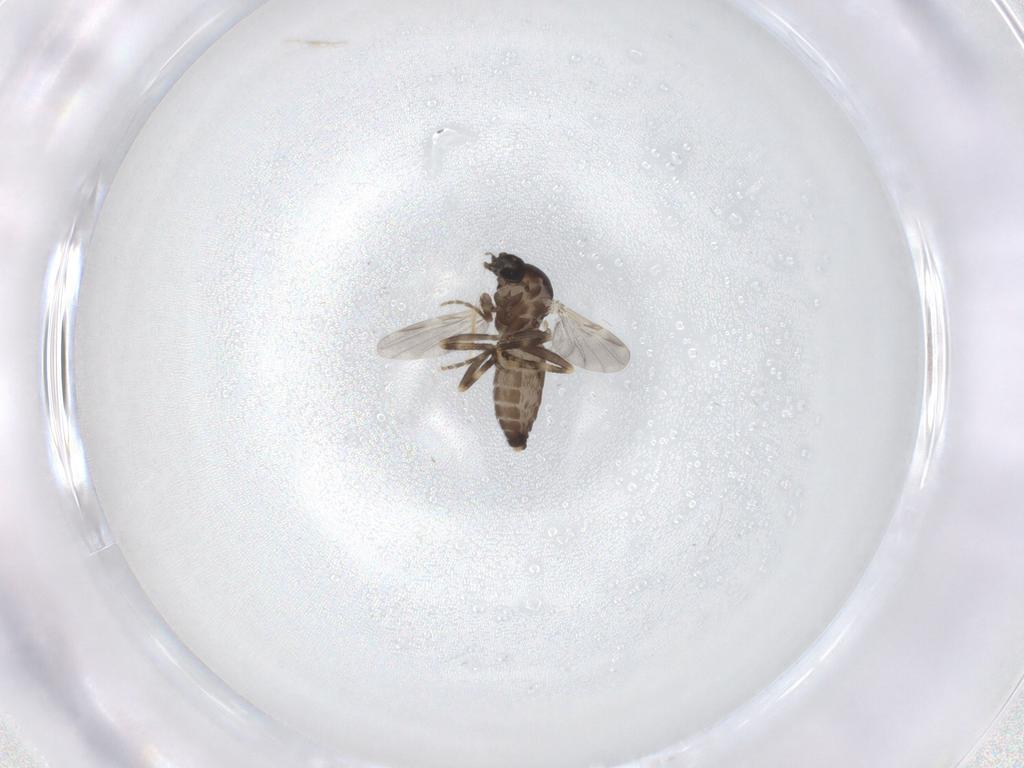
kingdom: Animalia
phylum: Arthropoda
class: Insecta
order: Diptera
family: Ceratopogonidae
